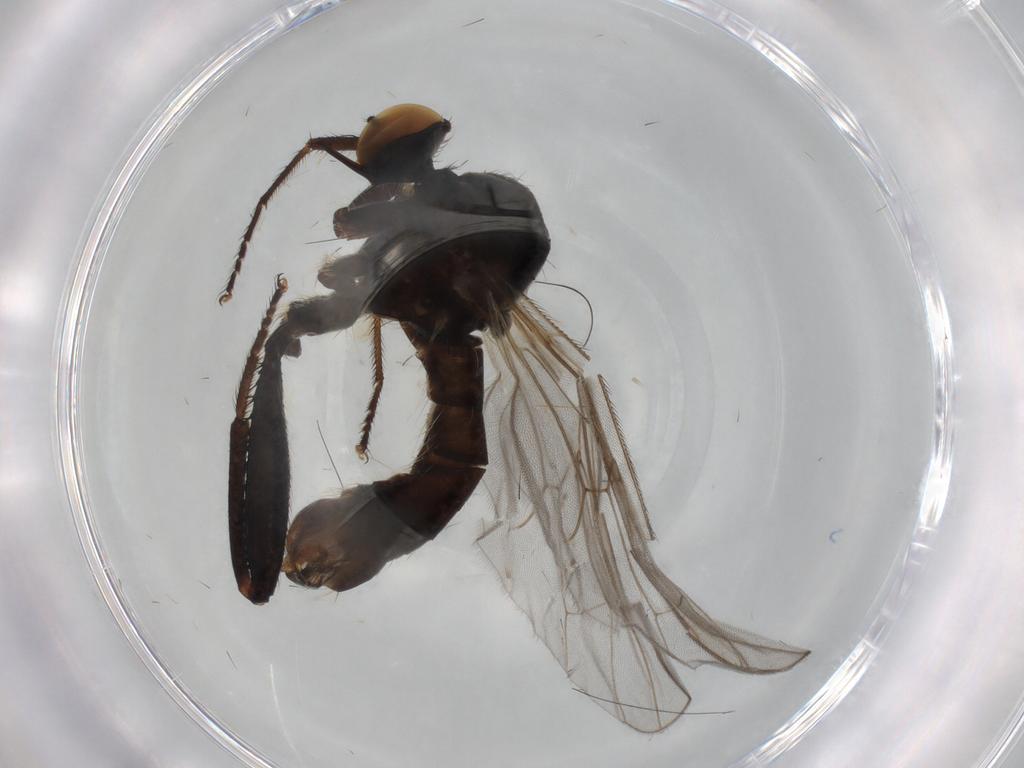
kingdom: Animalia
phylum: Arthropoda
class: Insecta
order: Diptera
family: Hybotidae
